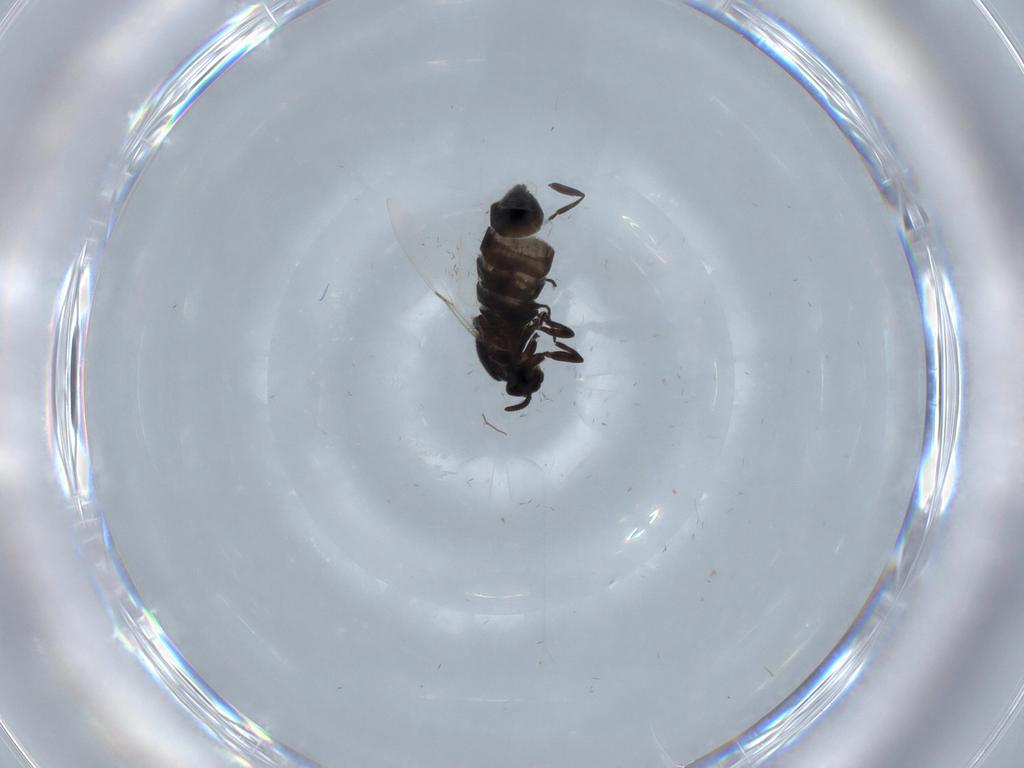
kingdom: Animalia
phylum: Arthropoda
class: Insecta
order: Diptera
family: Scatopsidae
